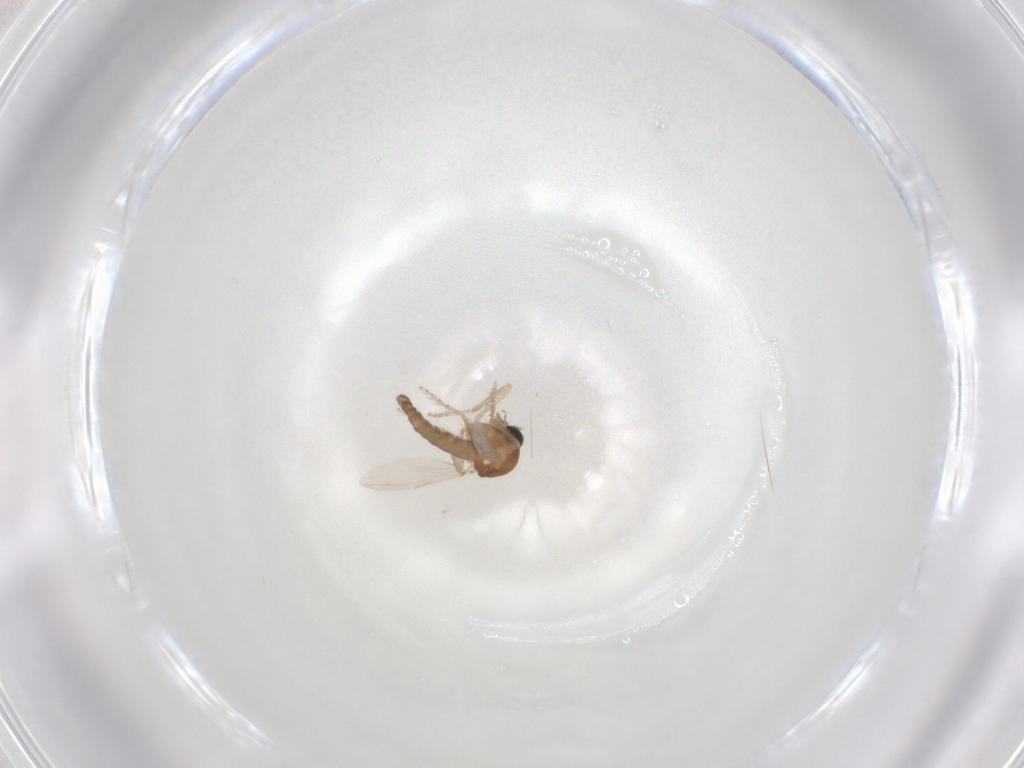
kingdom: Animalia
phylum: Arthropoda
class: Insecta
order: Diptera
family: Ceratopogonidae
